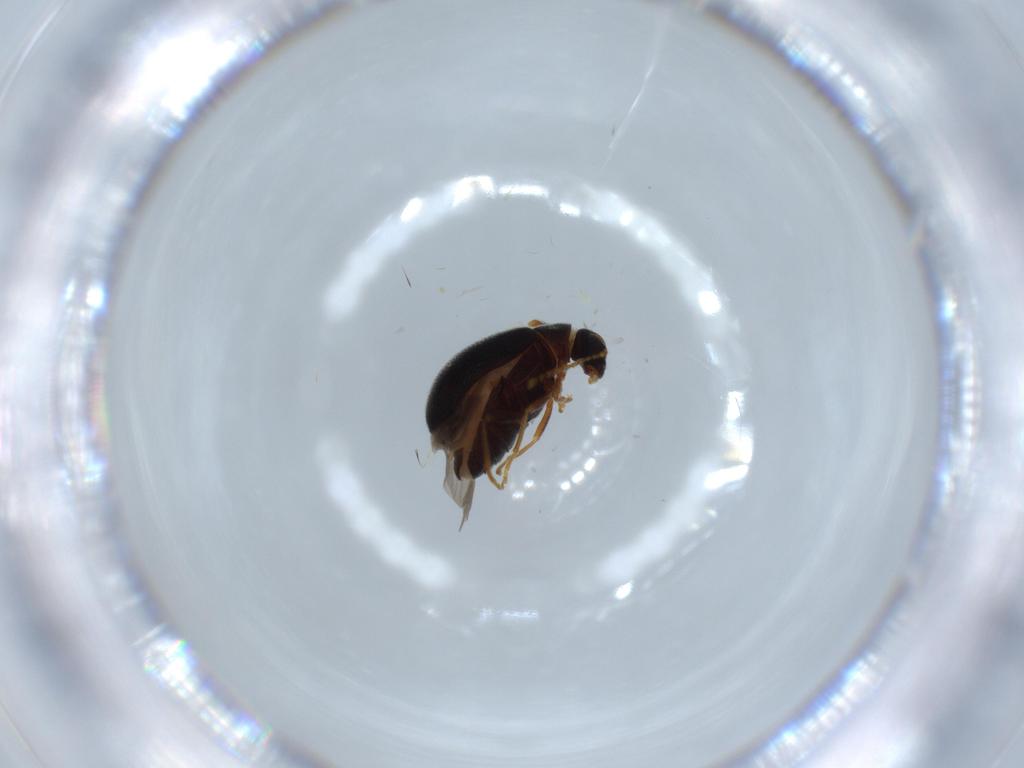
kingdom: Animalia
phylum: Arthropoda
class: Insecta
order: Coleoptera
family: Aderidae
